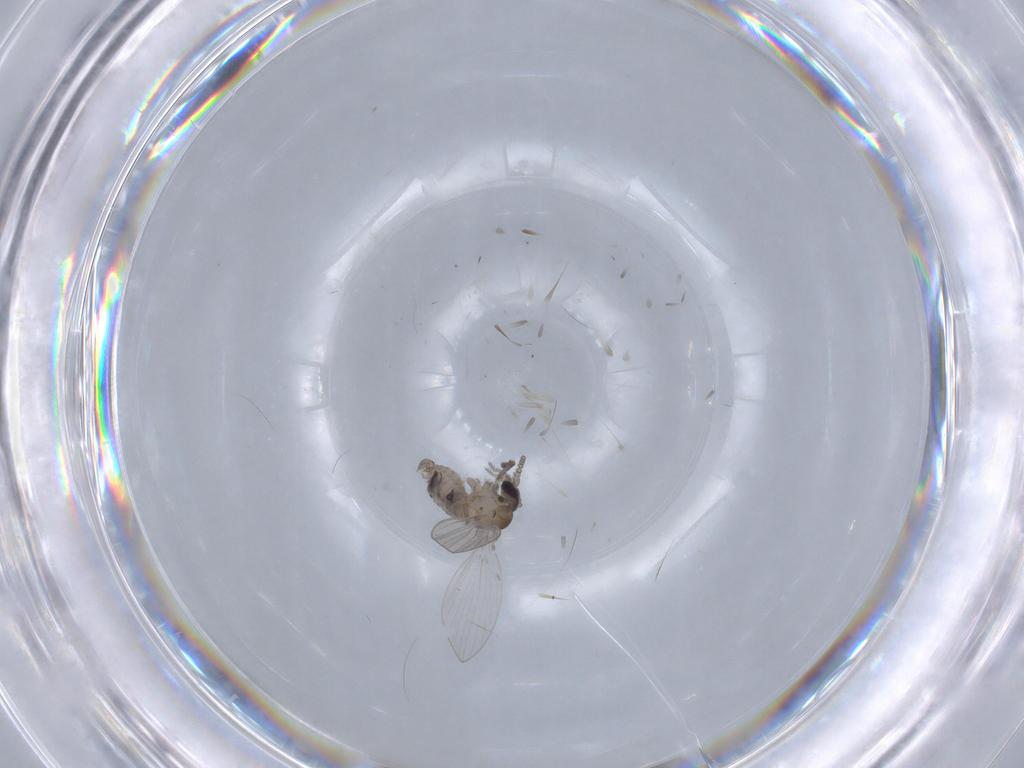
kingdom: Animalia
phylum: Arthropoda
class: Insecta
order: Diptera
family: Psychodidae
